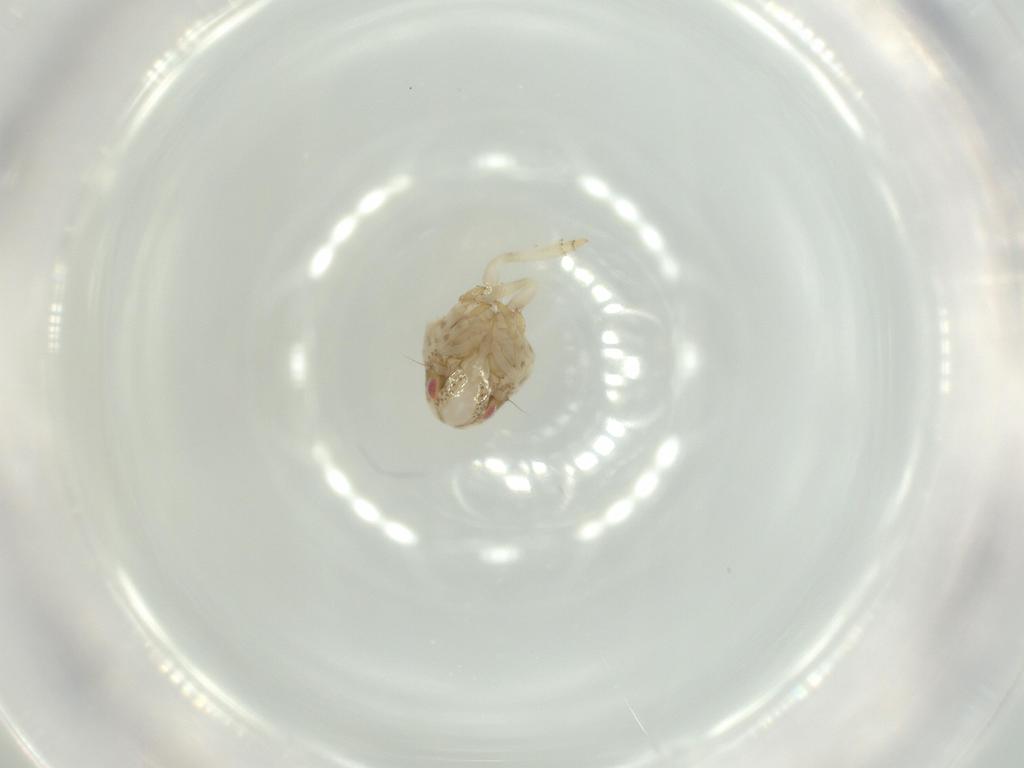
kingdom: Animalia
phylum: Arthropoda
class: Insecta
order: Hemiptera
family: Acanaloniidae
